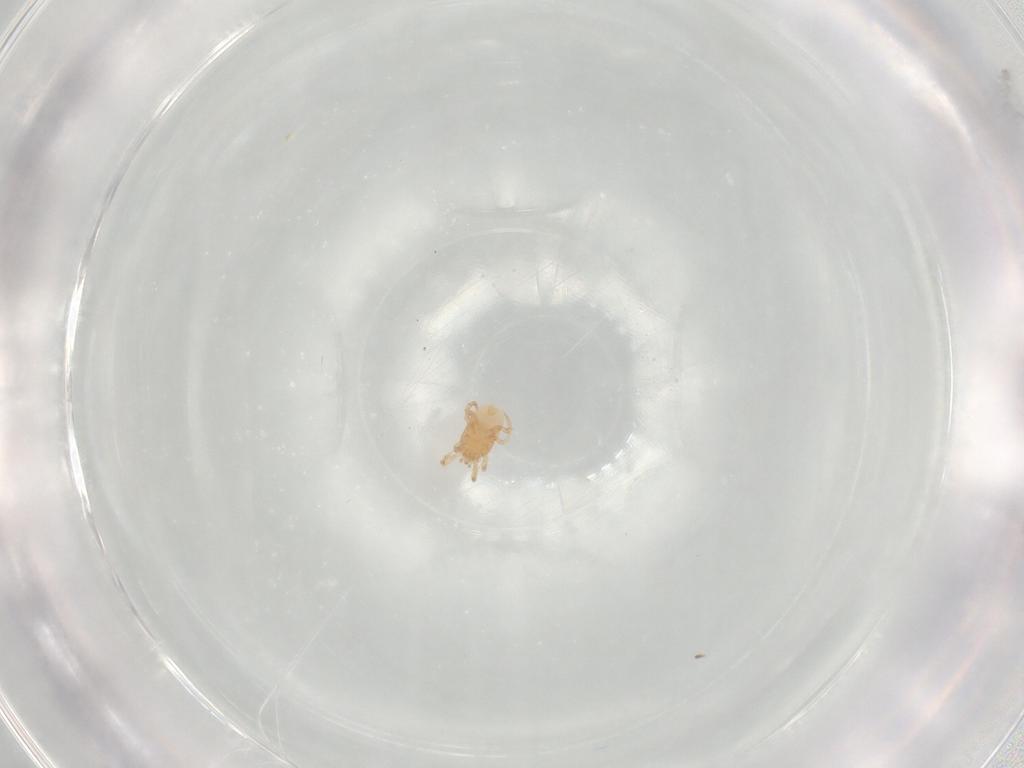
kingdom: Animalia
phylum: Arthropoda
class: Arachnida
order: Mesostigmata
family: Melicharidae
